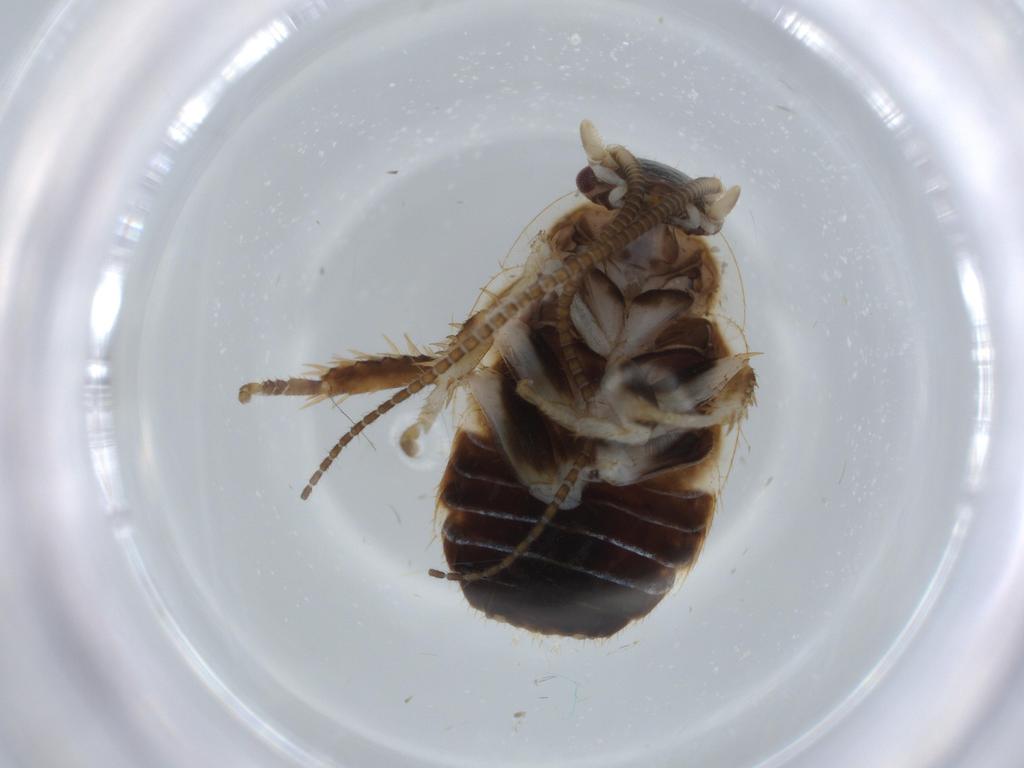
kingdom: Animalia
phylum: Arthropoda
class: Insecta
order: Blattodea
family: Ectobiidae
